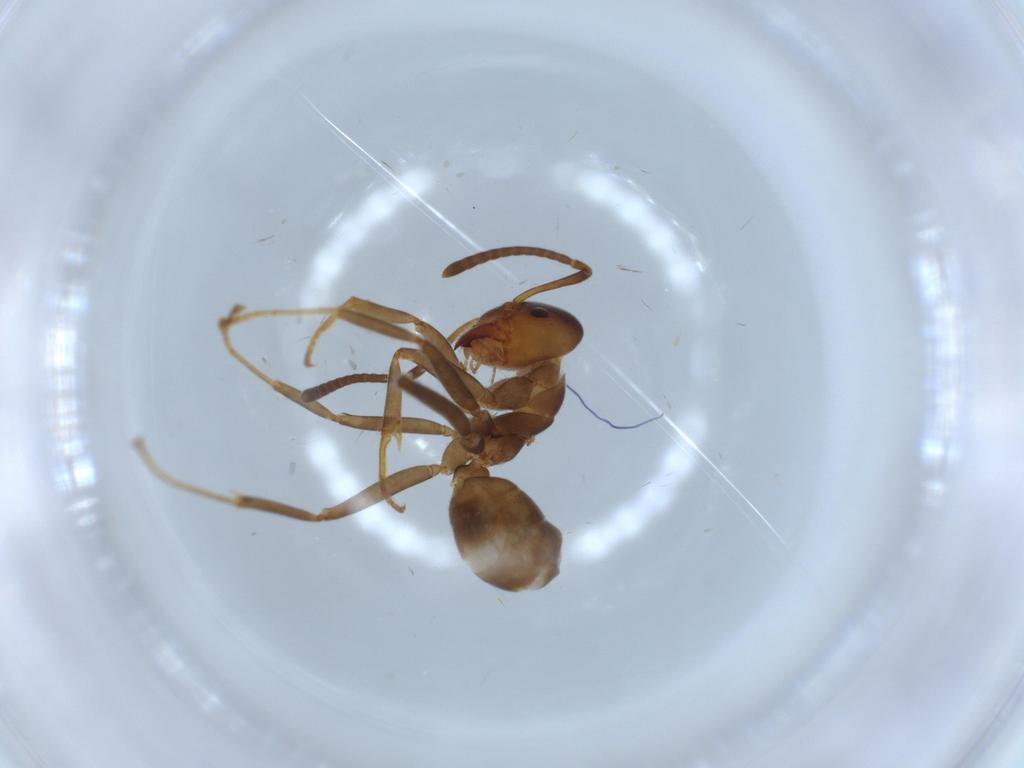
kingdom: Animalia
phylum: Arthropoda
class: Insecta
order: Hymenoptera
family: Formicidae
